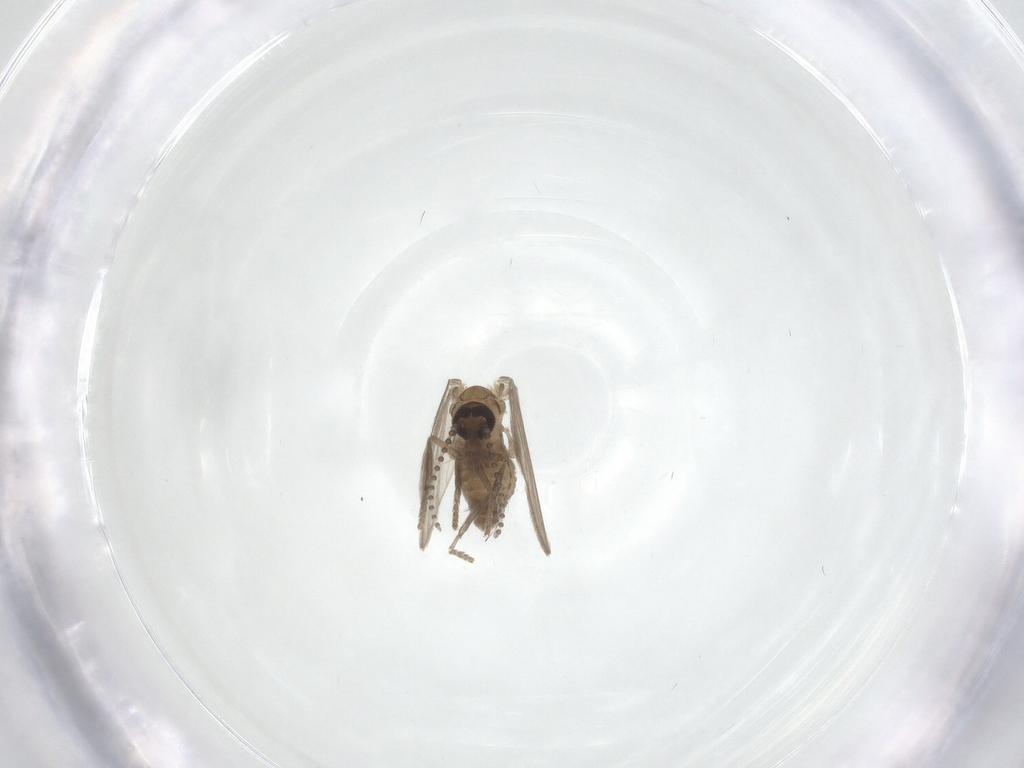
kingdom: Animalia
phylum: Arthropoda
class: Insecta
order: Diptera
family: Psychodidae
